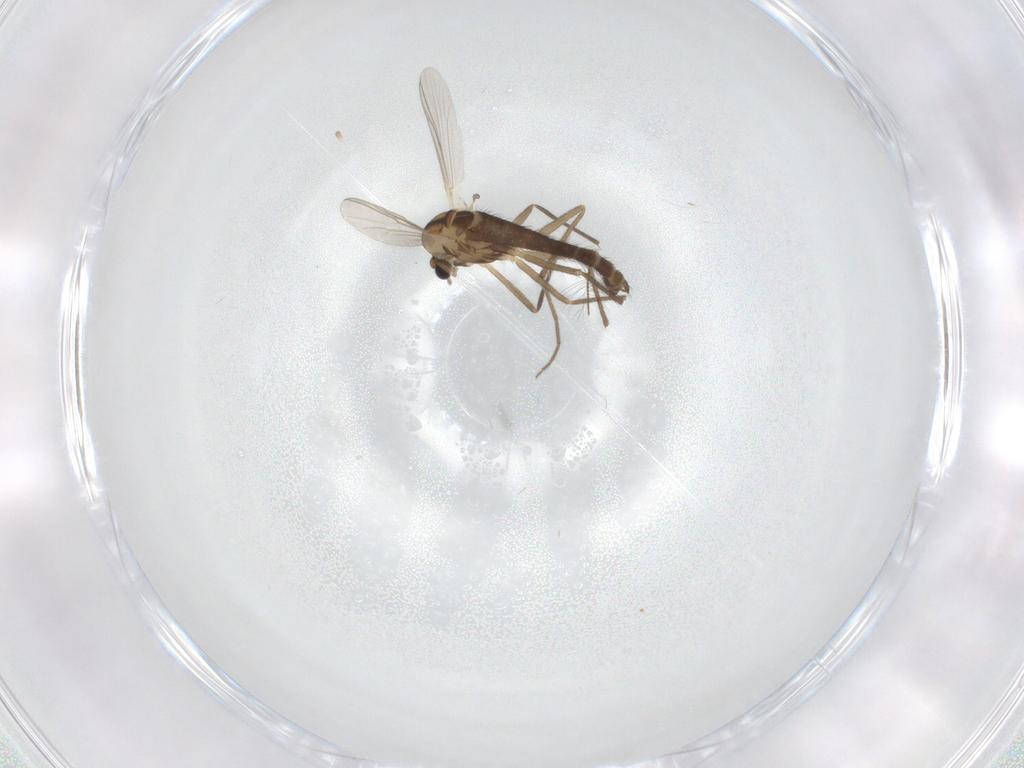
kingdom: Animalia
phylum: Arthropoda
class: Insecta
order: Diptera
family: Chironomidae
